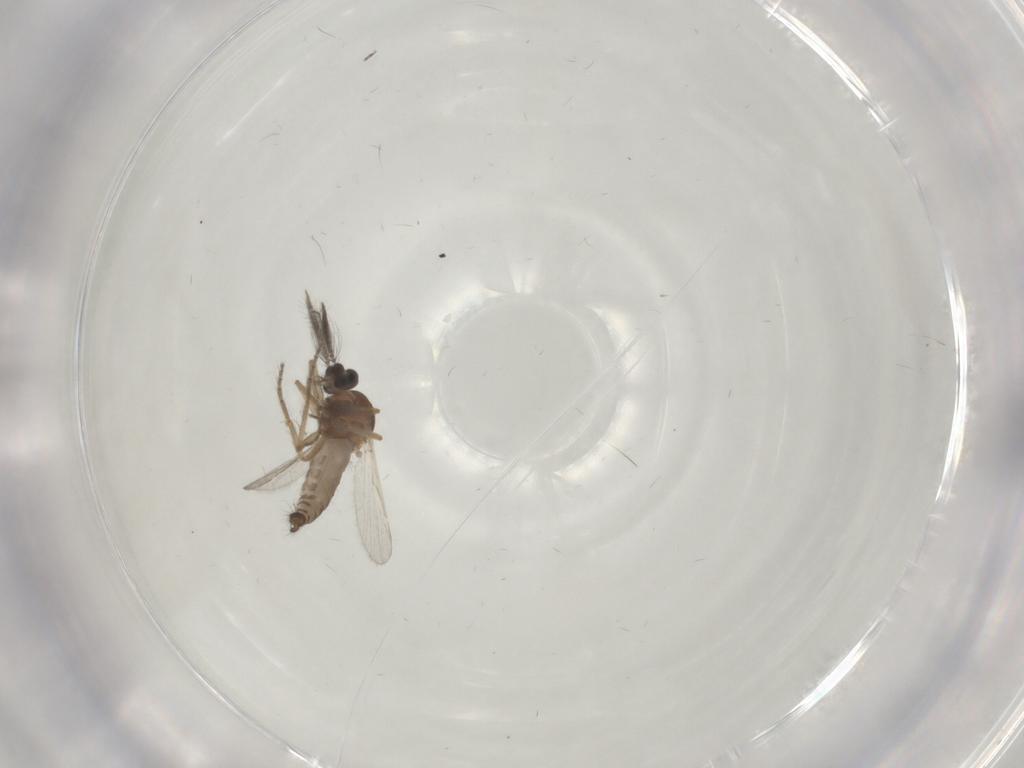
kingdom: Animalia
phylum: Arthropoda
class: Insecta
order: Diptera
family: Ceratopogonidae
